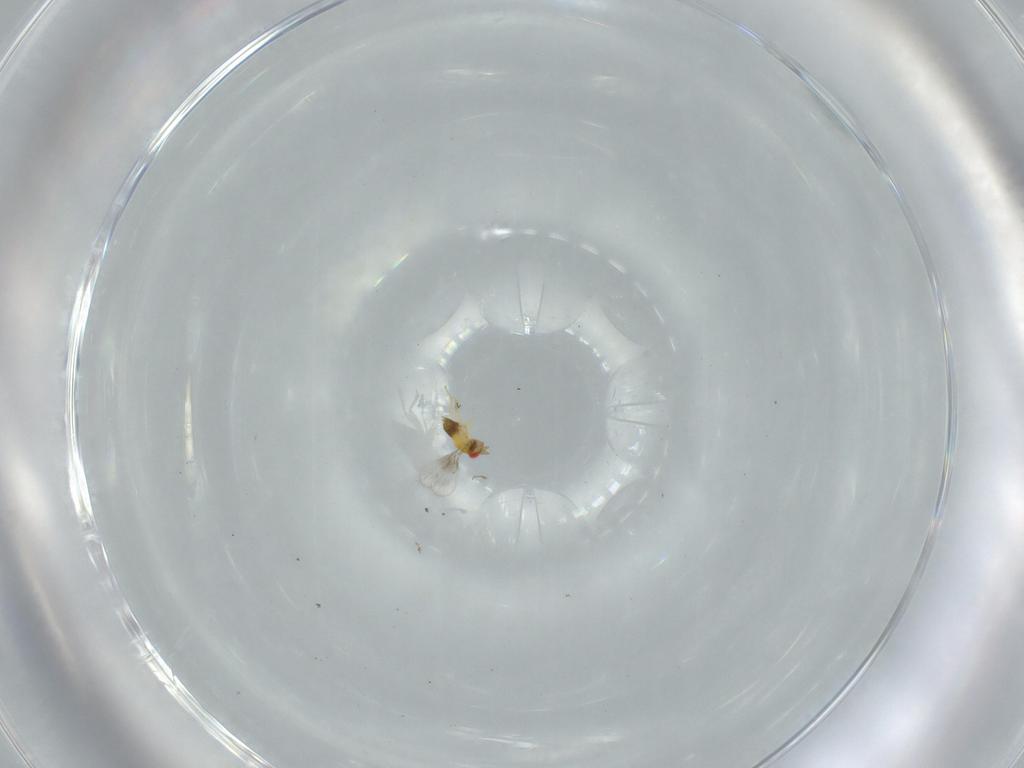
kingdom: Animalia
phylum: Arthropoda
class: Insecta
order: Hymenoptera
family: Trichogrammatidae
